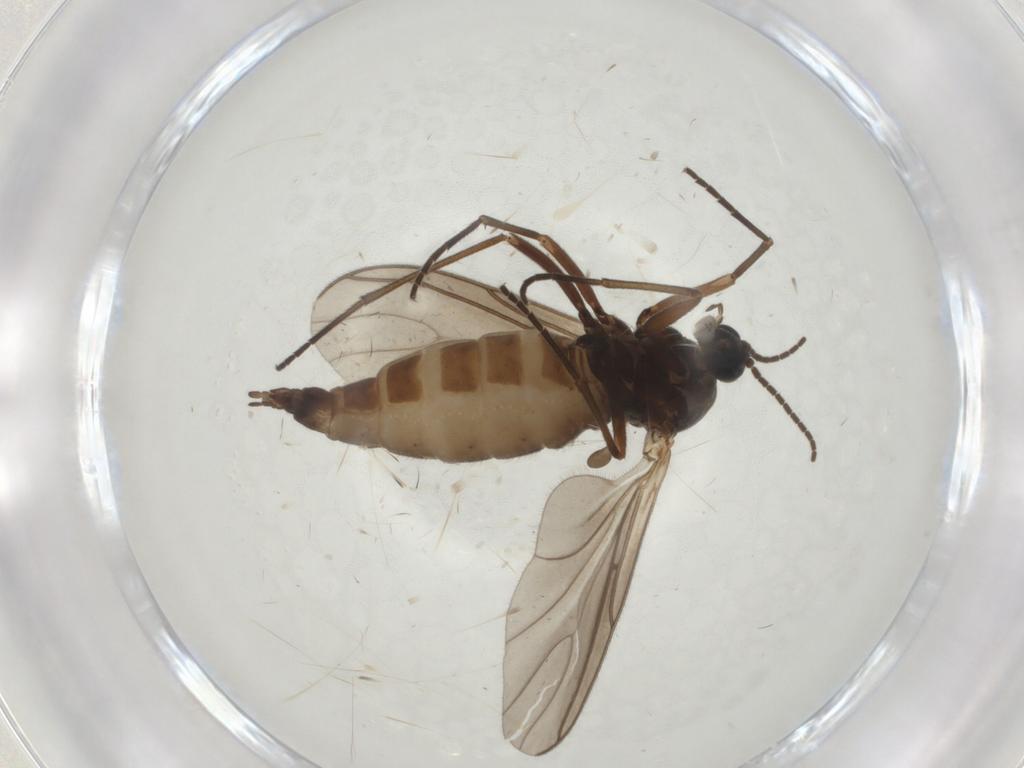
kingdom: Animalia
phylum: Arthropoda
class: Insecta
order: Diptera
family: Sciaridae
